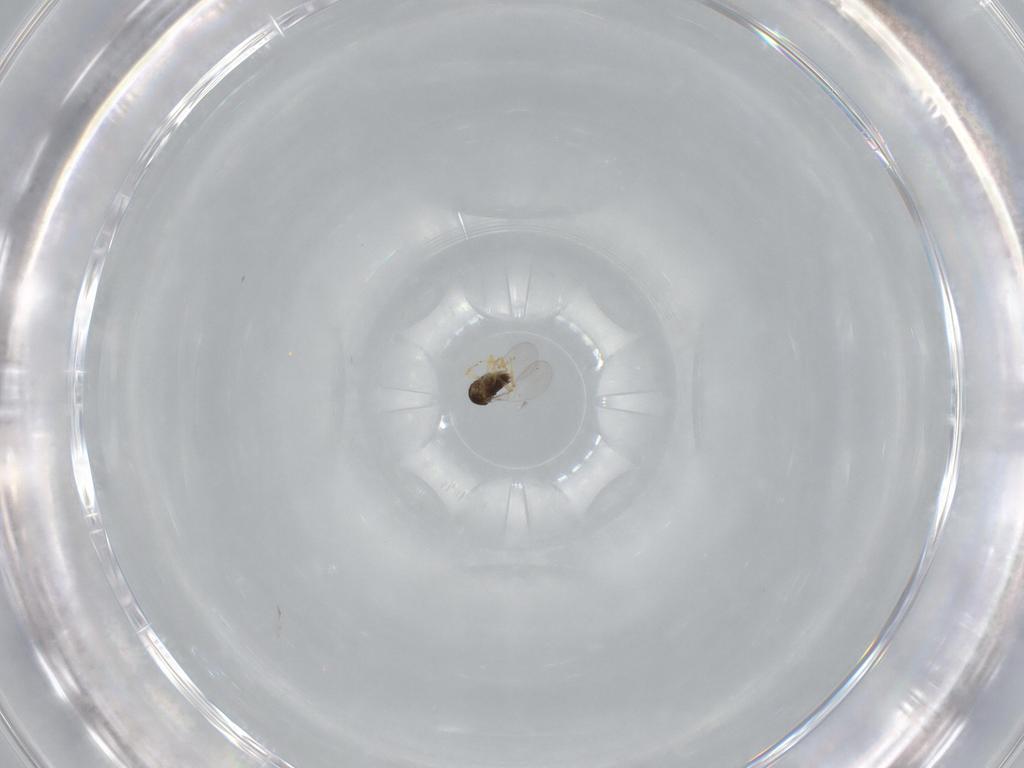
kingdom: Animalia
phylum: Arthropoda
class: Insecta
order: Hymenoptera
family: Encyrtidae
